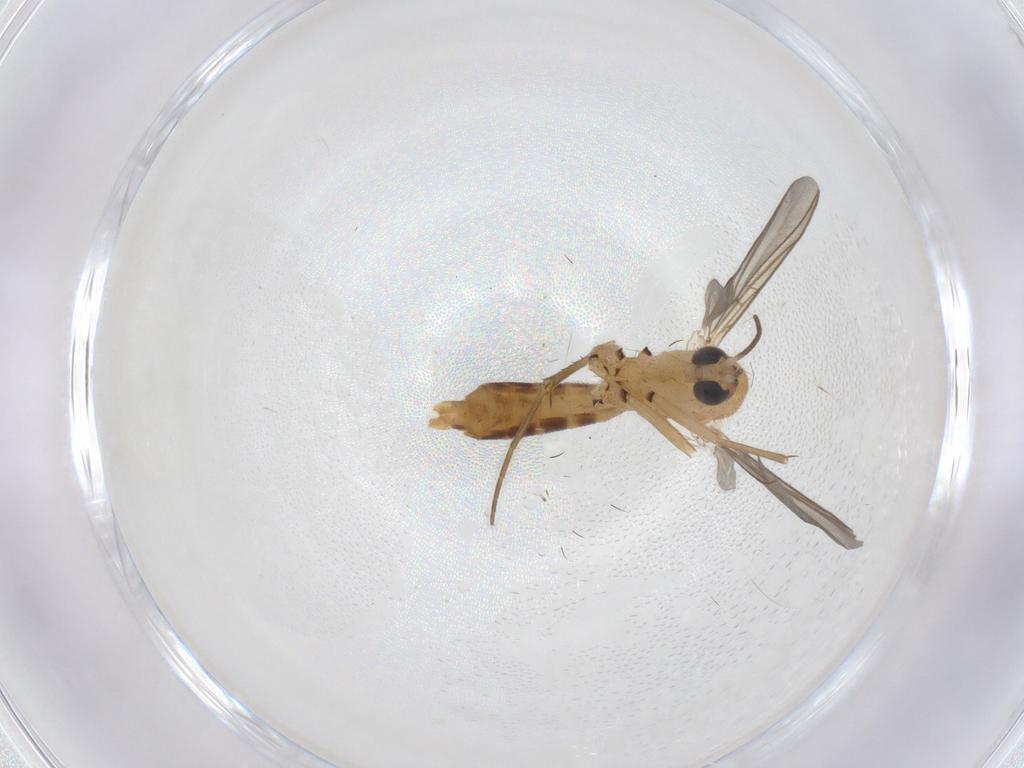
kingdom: Animalia
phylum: Arthropoda
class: Insecta
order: Diptera
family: Mycetophilidae
